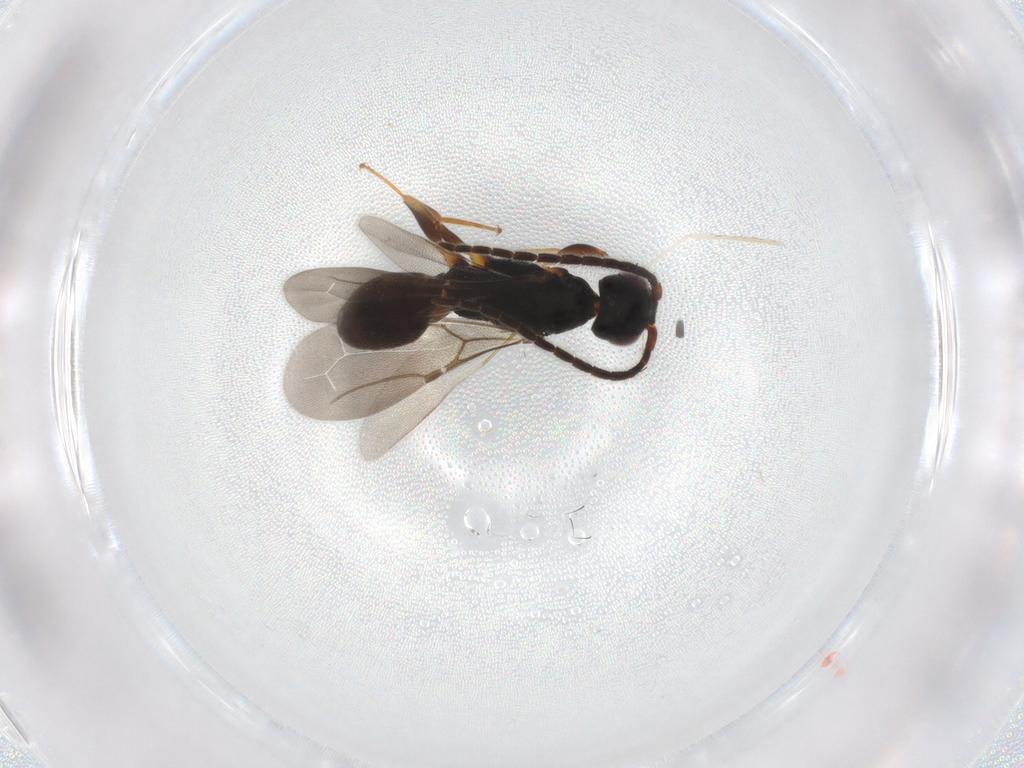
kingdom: Animalia
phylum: Arthropoda
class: Insecta
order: Hymenoptera
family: Bethylidae
